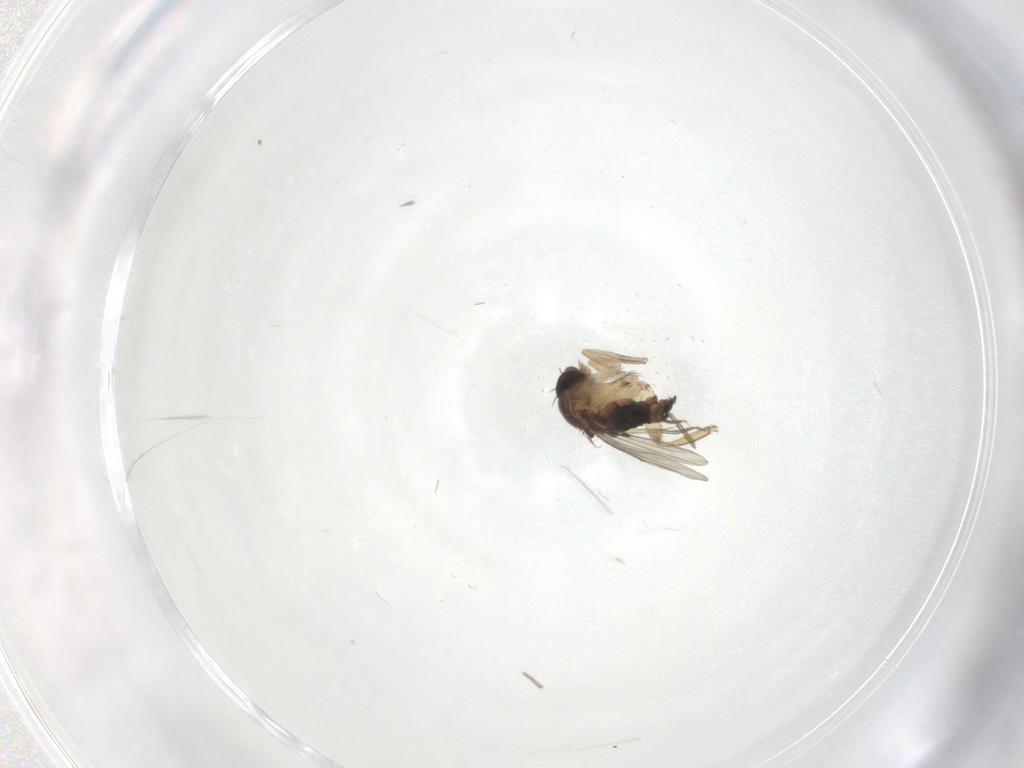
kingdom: Animalia
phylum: Arthropoda
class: Insecta
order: Diptera
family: Psychodidae
